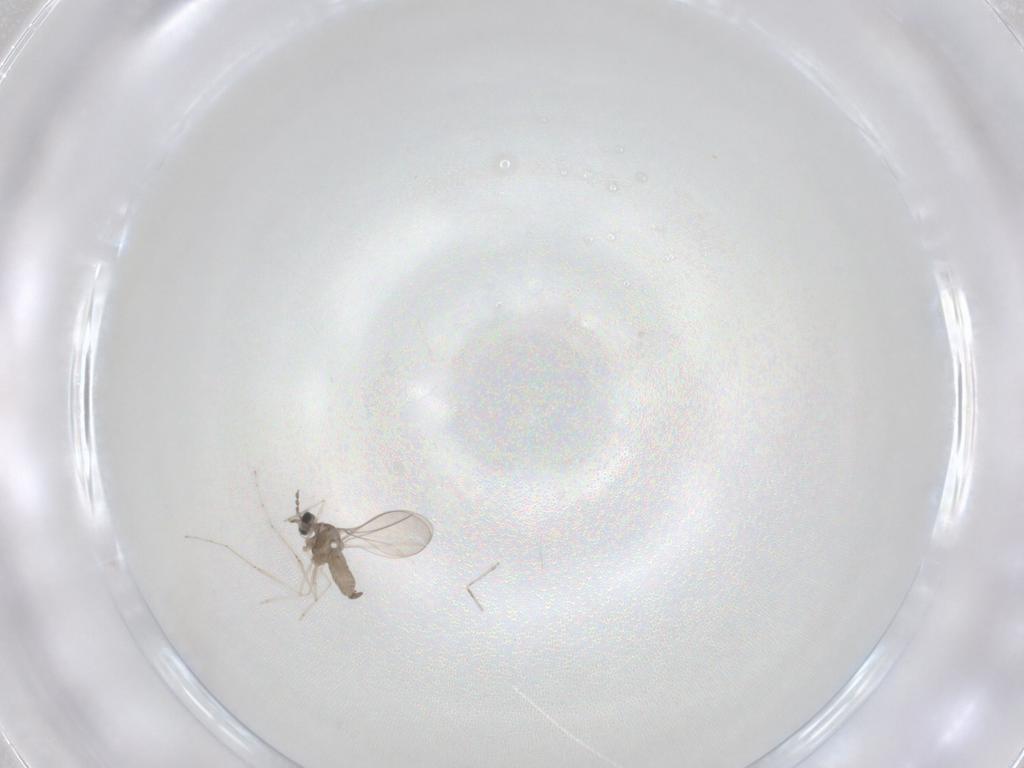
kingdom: Animalia
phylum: Arthropoda
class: Insecta
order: Diptera
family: Cecidomyiidae
